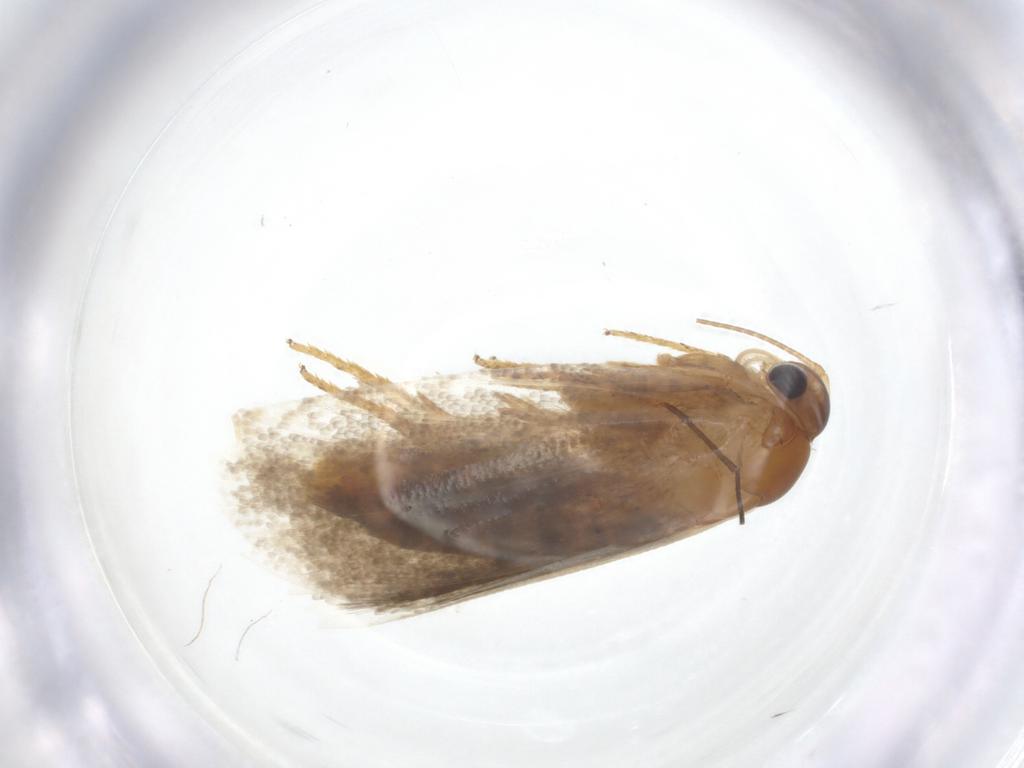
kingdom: Animalia
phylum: Arthropoda
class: Insecta
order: Lepidoptera
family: Oecophoridae
